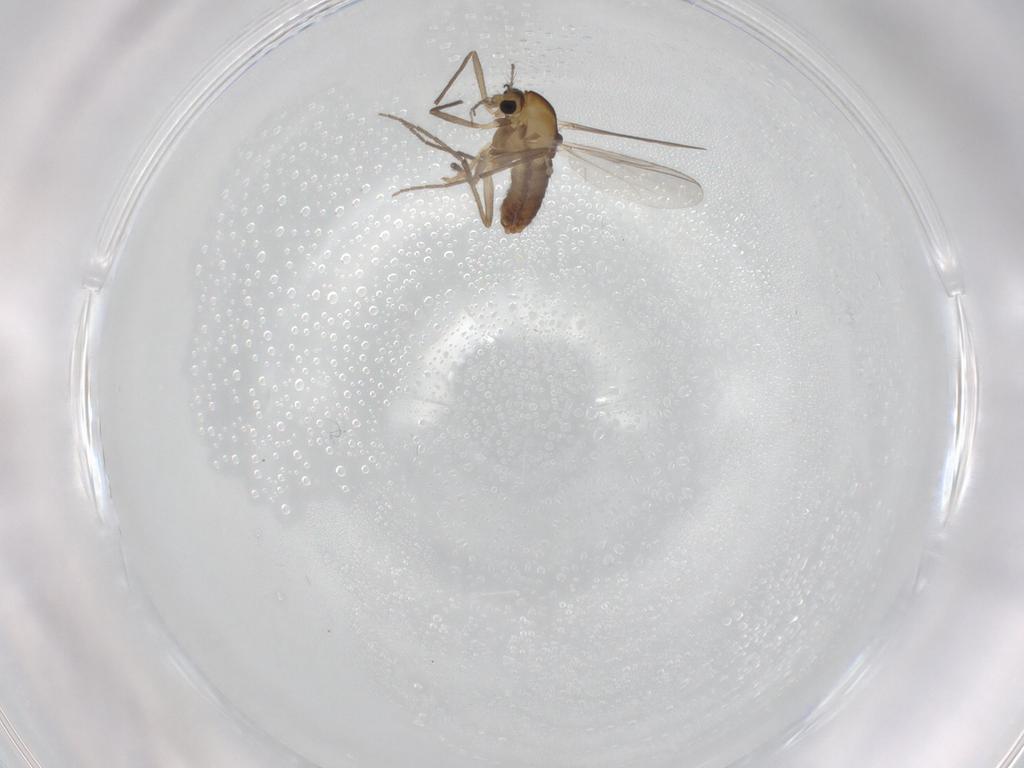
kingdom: Animalia
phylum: Arthropoda
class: Insecta
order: Diptera
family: Chironomidae
